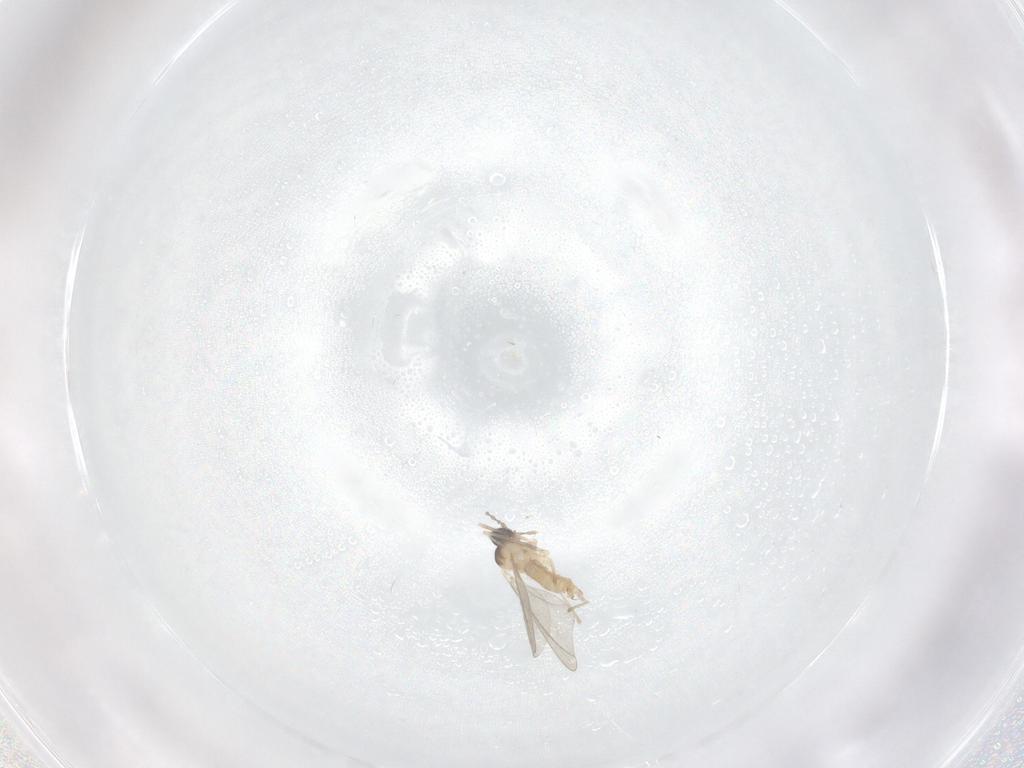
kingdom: Animalia
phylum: Arthropoda
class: Insecta
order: Diptera
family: Cecidomyiidae
